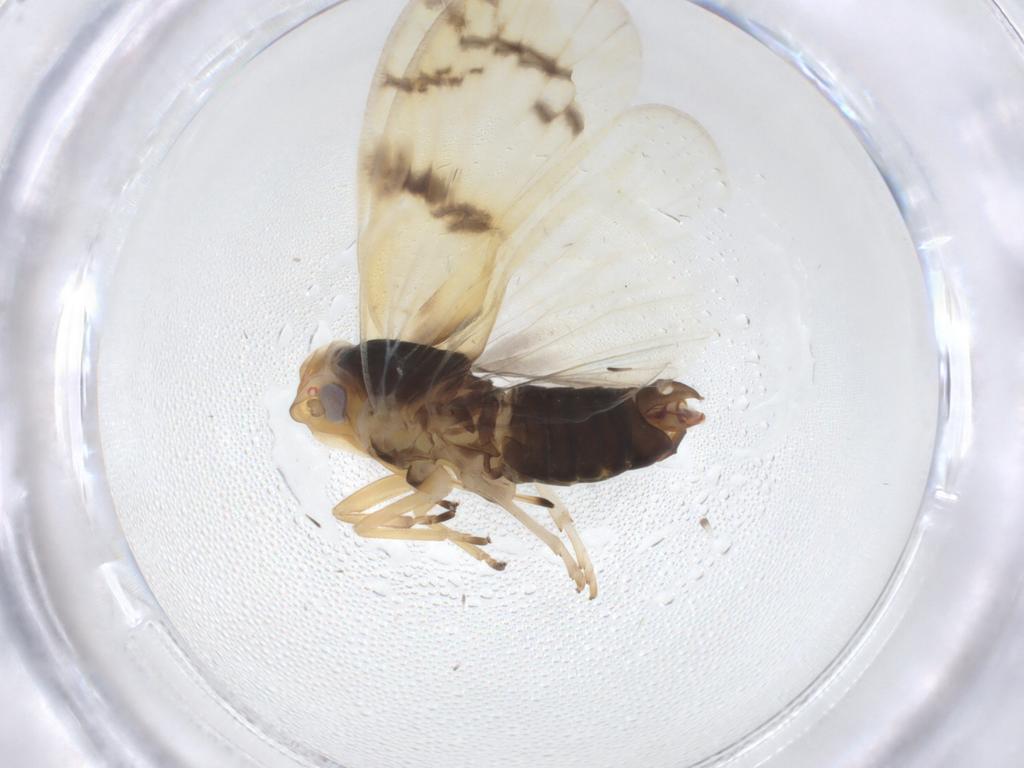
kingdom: Animalia
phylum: Arthropoda
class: Insecta
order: Hemiptera
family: Cixiidae
